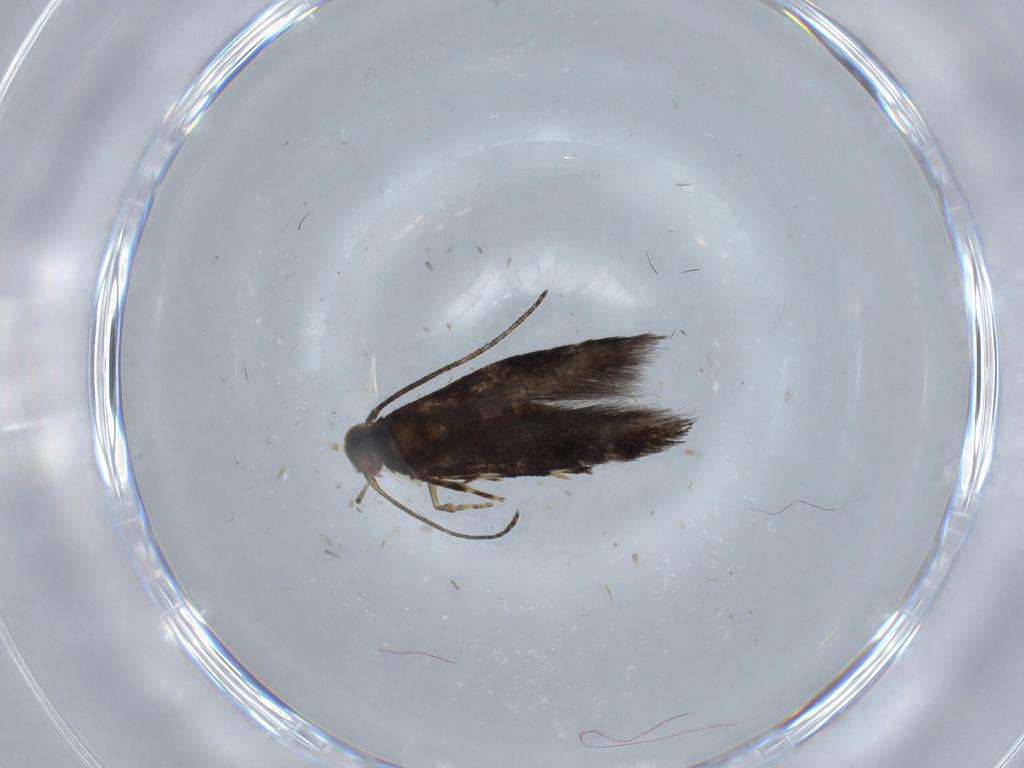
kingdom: Animalia
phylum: Arthropoda
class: Insecta
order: Lepidoptera
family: Momphidae
